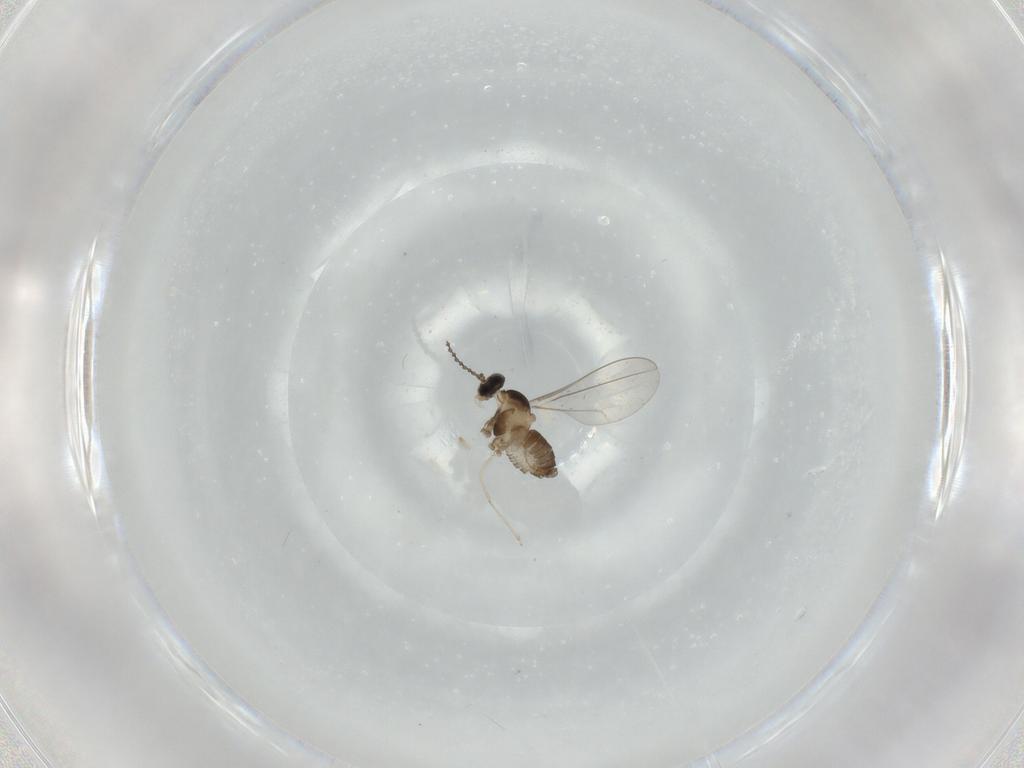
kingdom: Animalia
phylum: Arthropoda
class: Insecta
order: Diptera
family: Cecidomyiidae
